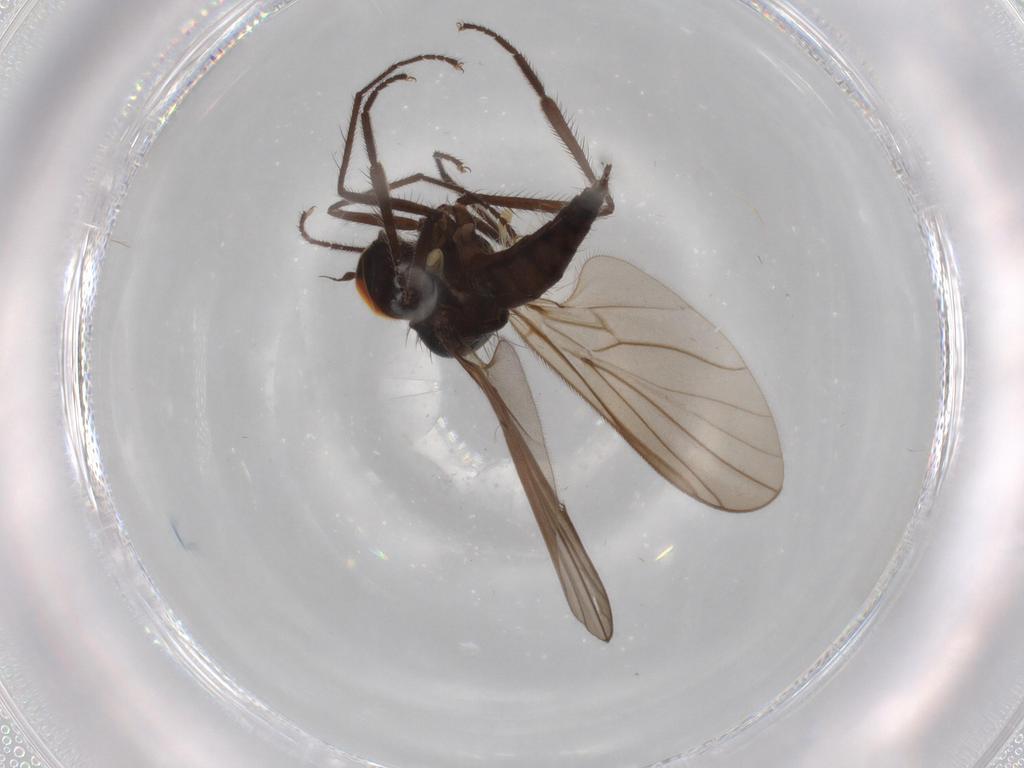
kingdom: Animalia
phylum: Arthropoda
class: Insecta
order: Diptera
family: Hybotidae
